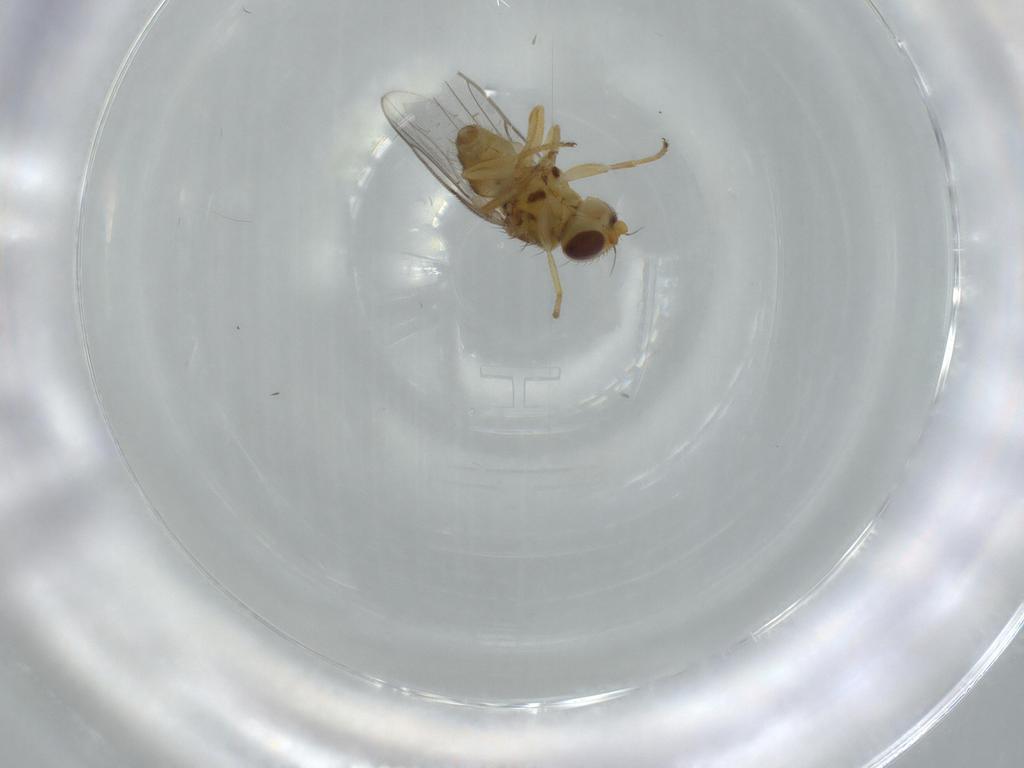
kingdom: Animalia
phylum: Arthropoda
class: Insecta
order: Diptera
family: Chloropidae
